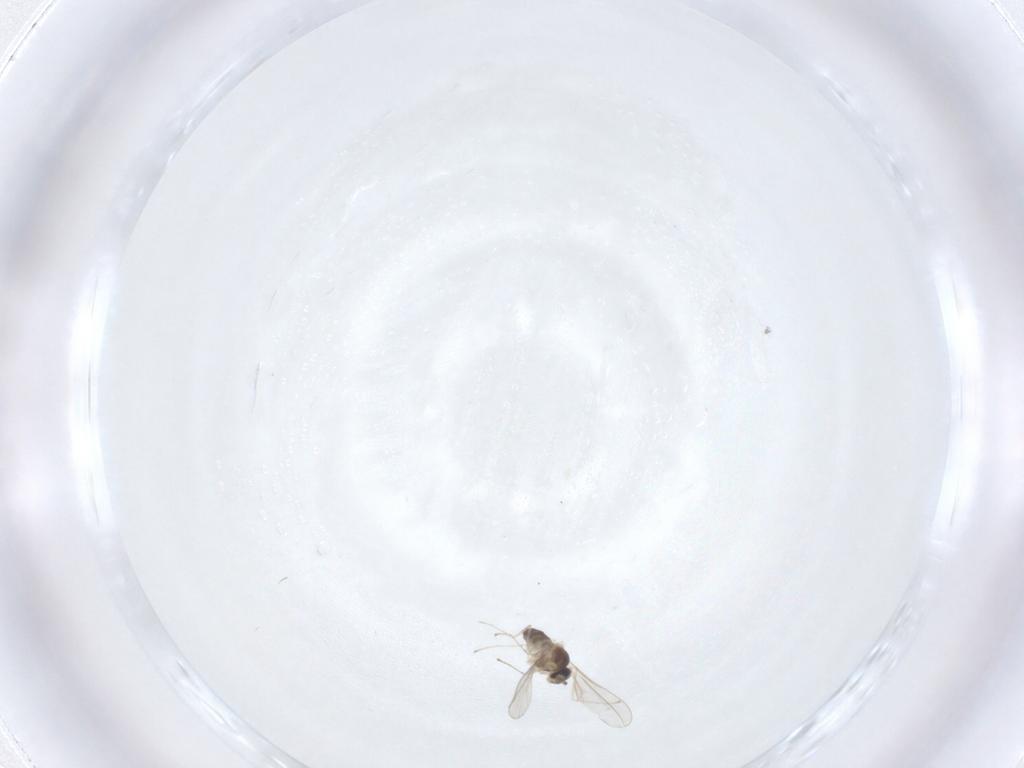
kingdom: Animalia
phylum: Arthropoda
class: Insecta
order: Diptera
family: Cecidomyiidae
